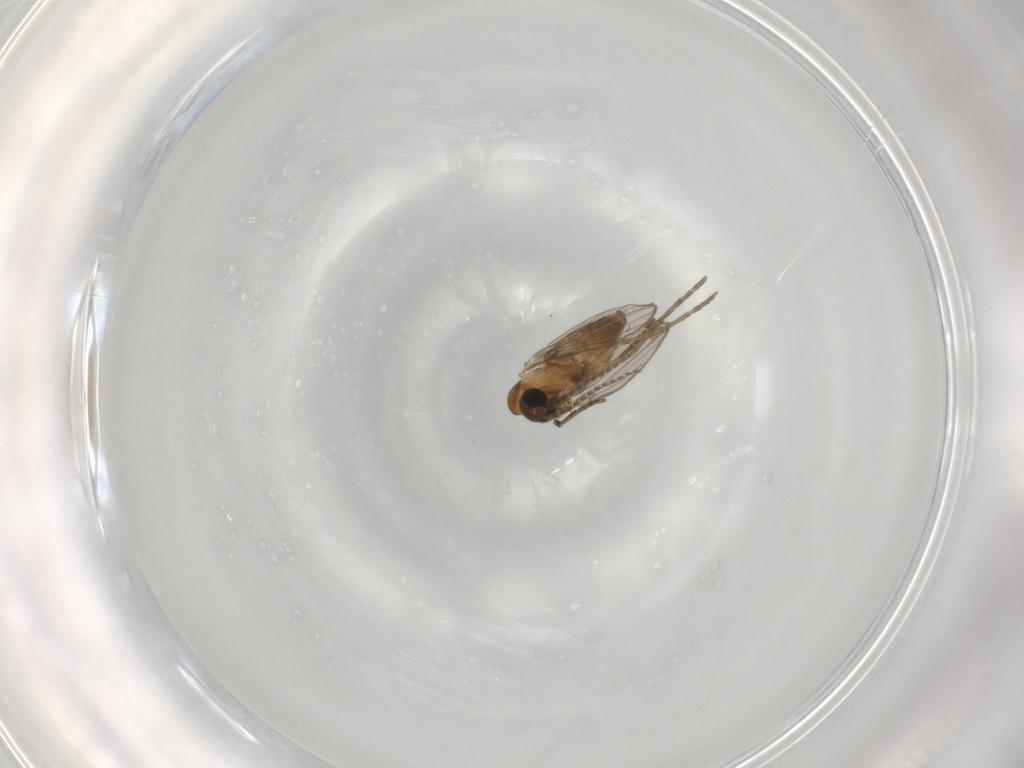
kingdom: Animalia
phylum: Arthropoda
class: Insecta
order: Diptera
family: Psychodidae
